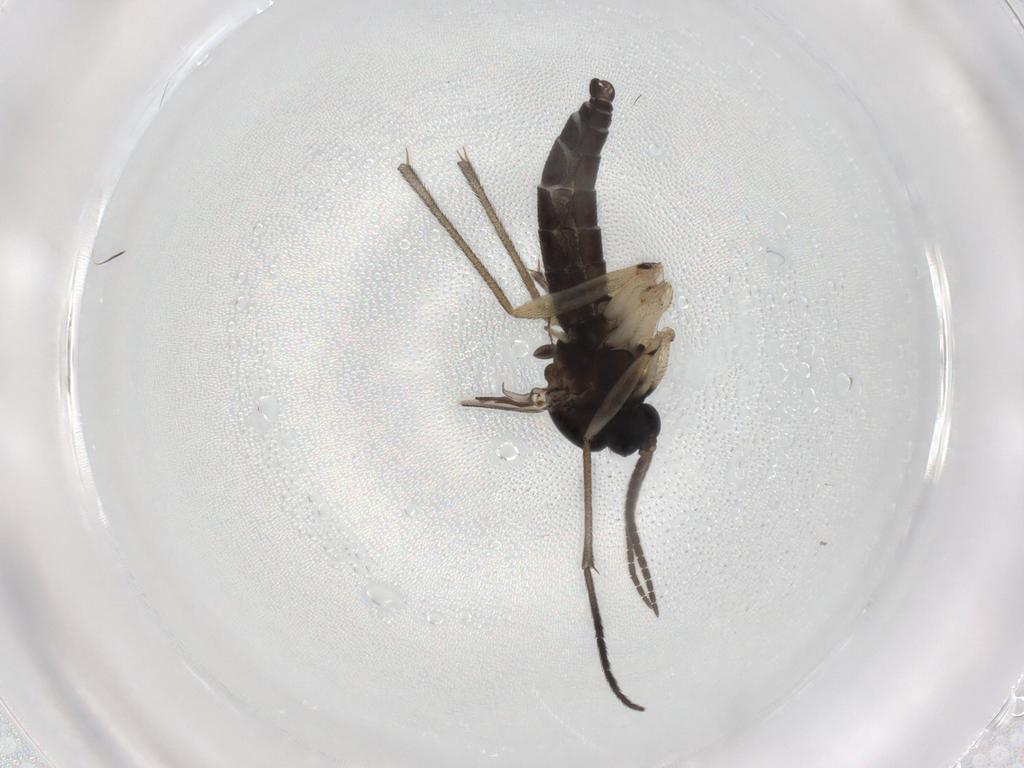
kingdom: Animalia
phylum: Arthropoda
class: Insecta
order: Diptera
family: Sciaridae
